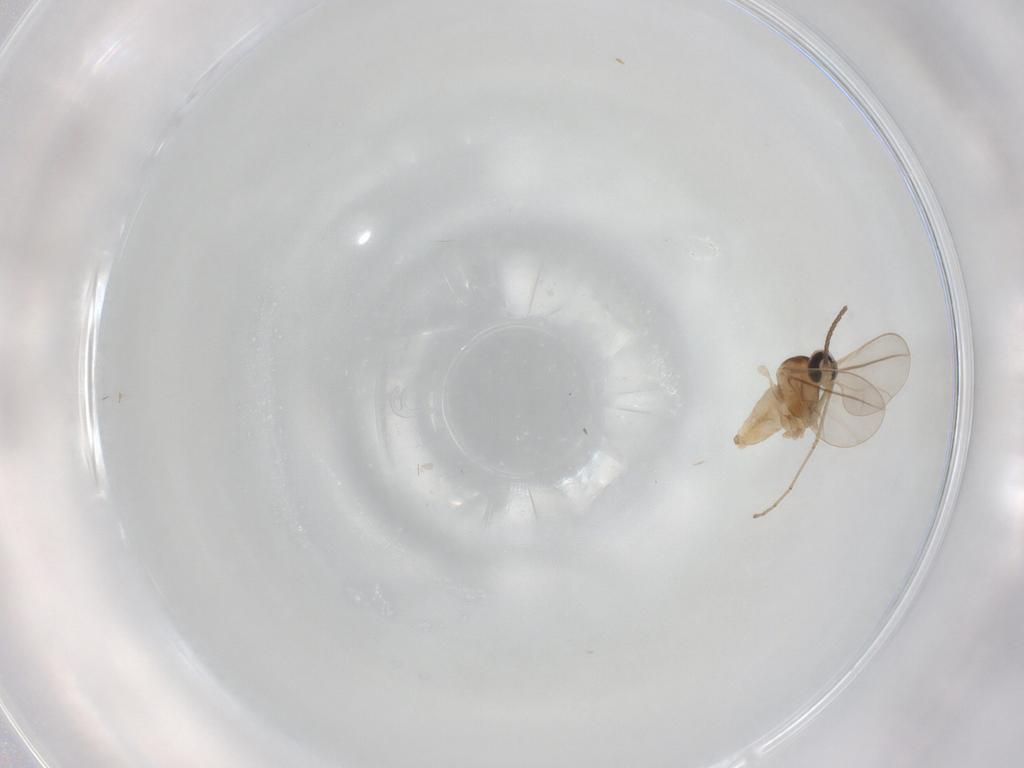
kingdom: Animalia
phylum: Arthropoda
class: Insecta
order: Diptera
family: Cecidomyiidae
